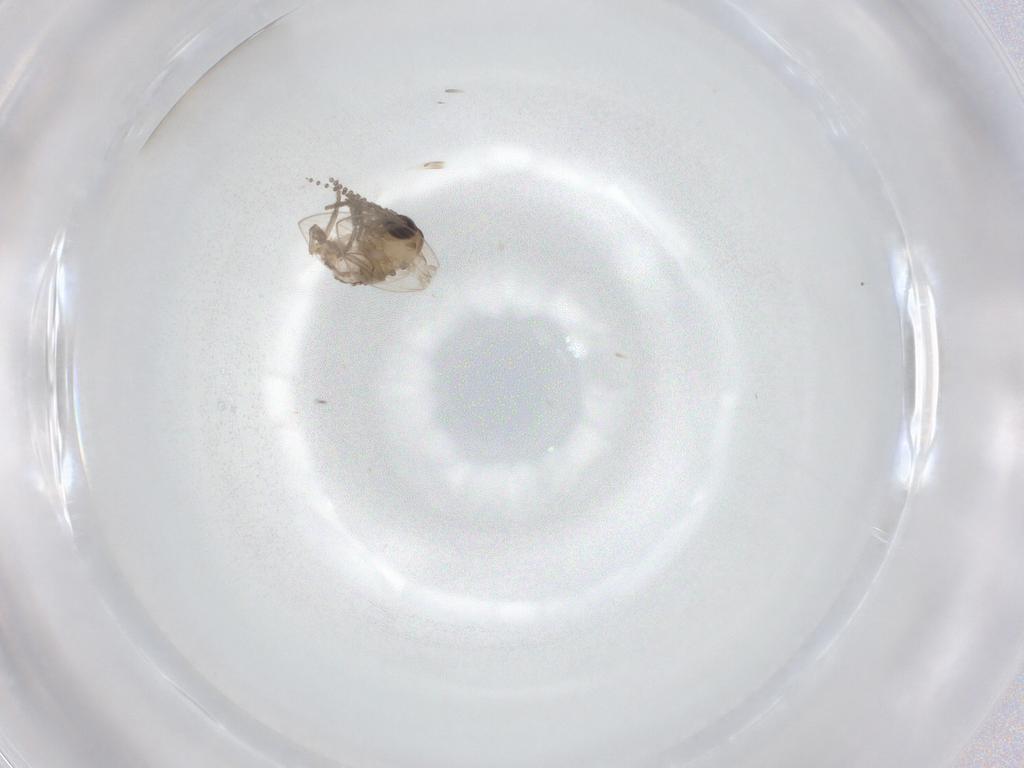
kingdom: Animalia
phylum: Arthropoda
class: Insecta
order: Diptera
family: Psychodidae
